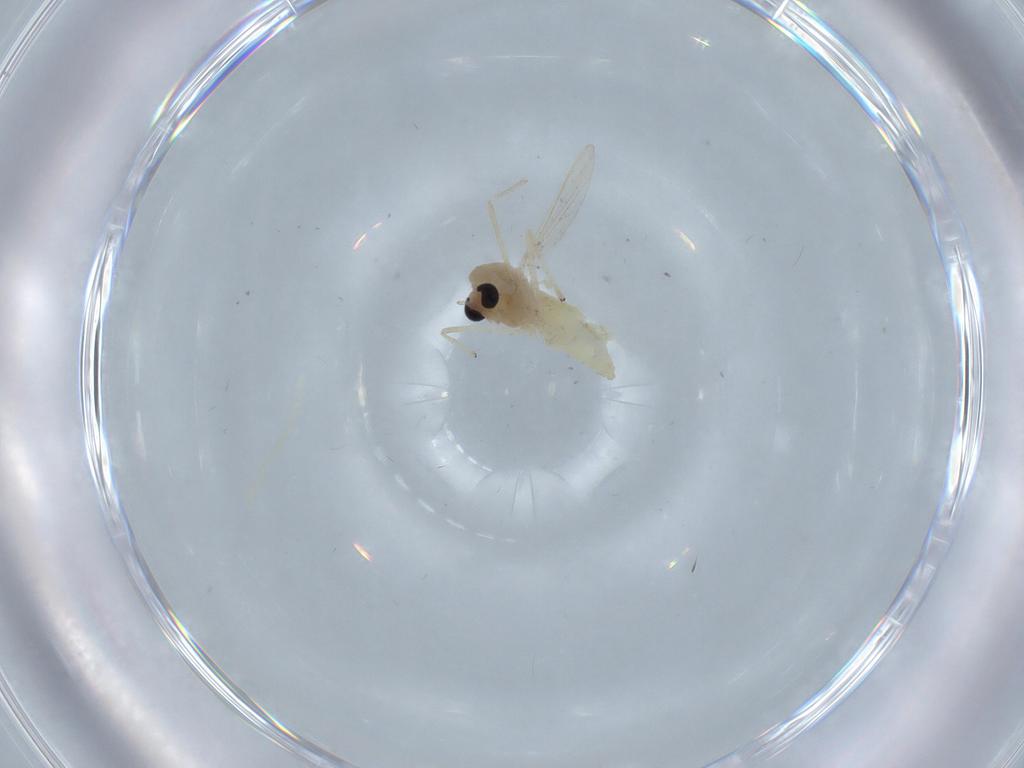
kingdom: Animalia
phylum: Arthropoda
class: Insecta
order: Diptera
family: Chironomidae
